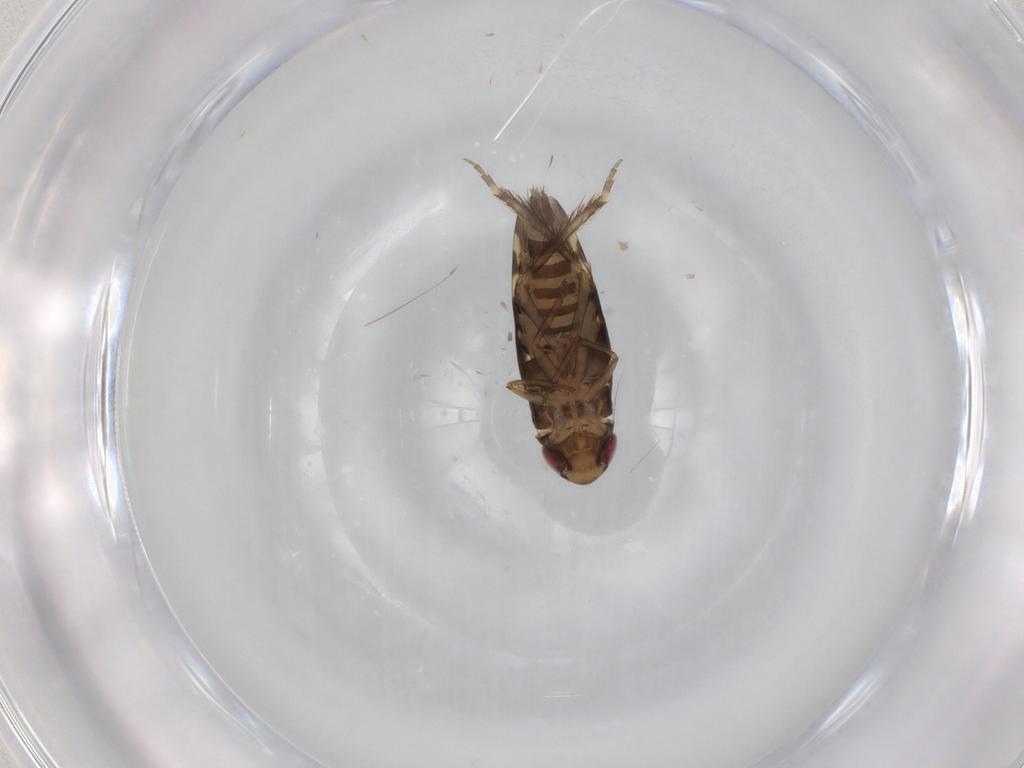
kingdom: Animalia
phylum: Arthropoda
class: Insecta
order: Hemiptera
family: Cicadellidae
